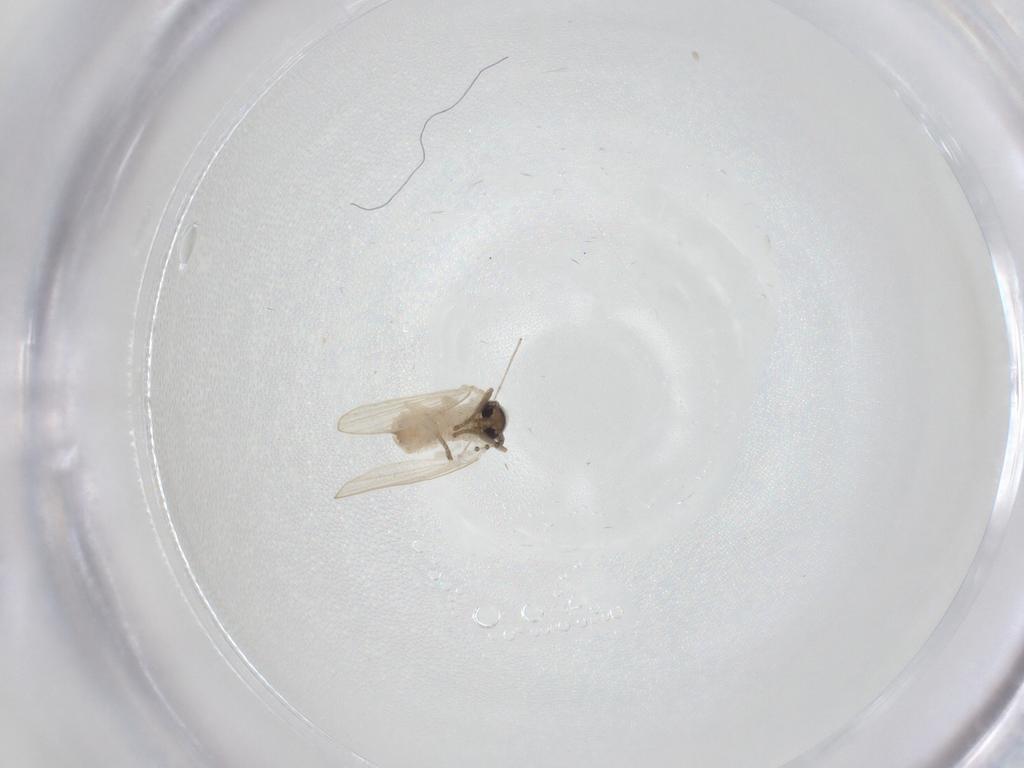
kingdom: Animalia
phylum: Arthropoda
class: Insecta
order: Diptera
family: Psychodidae
